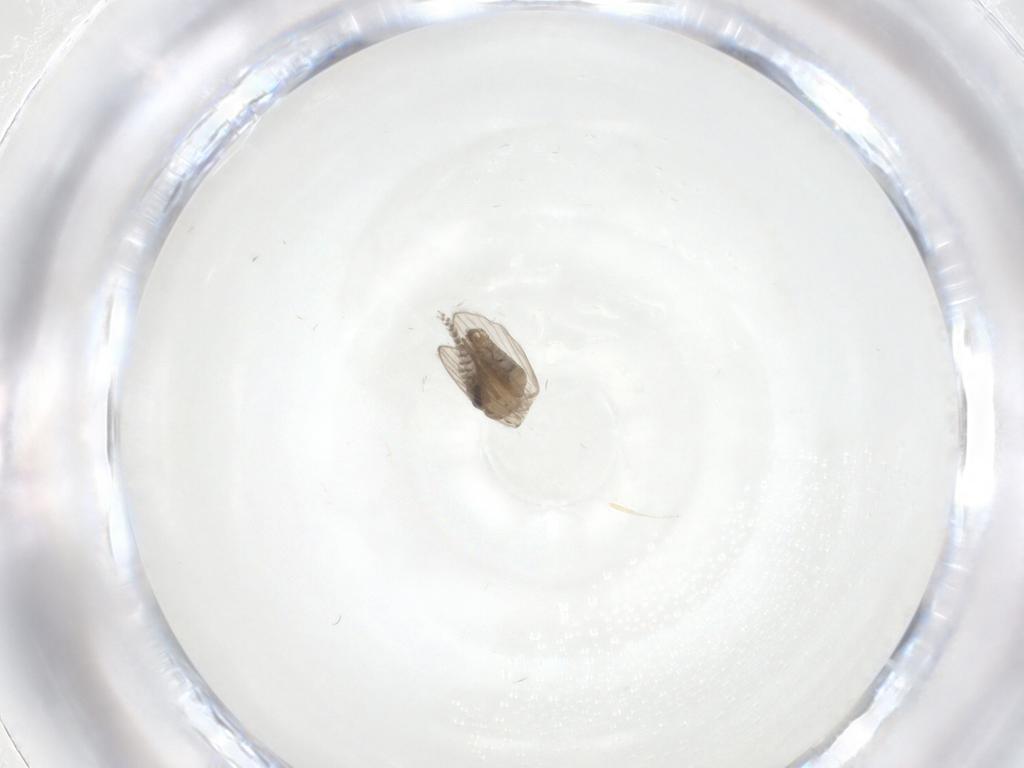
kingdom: Animalia
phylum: Arthropoda
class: Insecta
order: Diptera
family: Psychodidae
